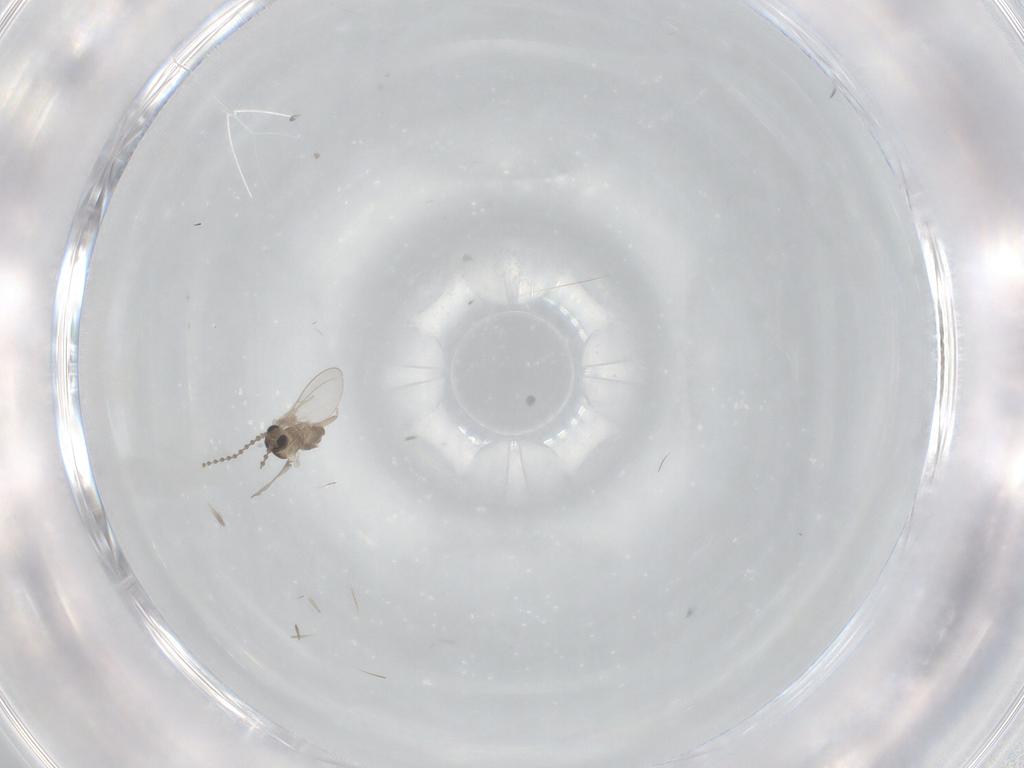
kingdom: Animalia
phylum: Arthropoda
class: Insecta
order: Diptera
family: Cecidomyiidae
